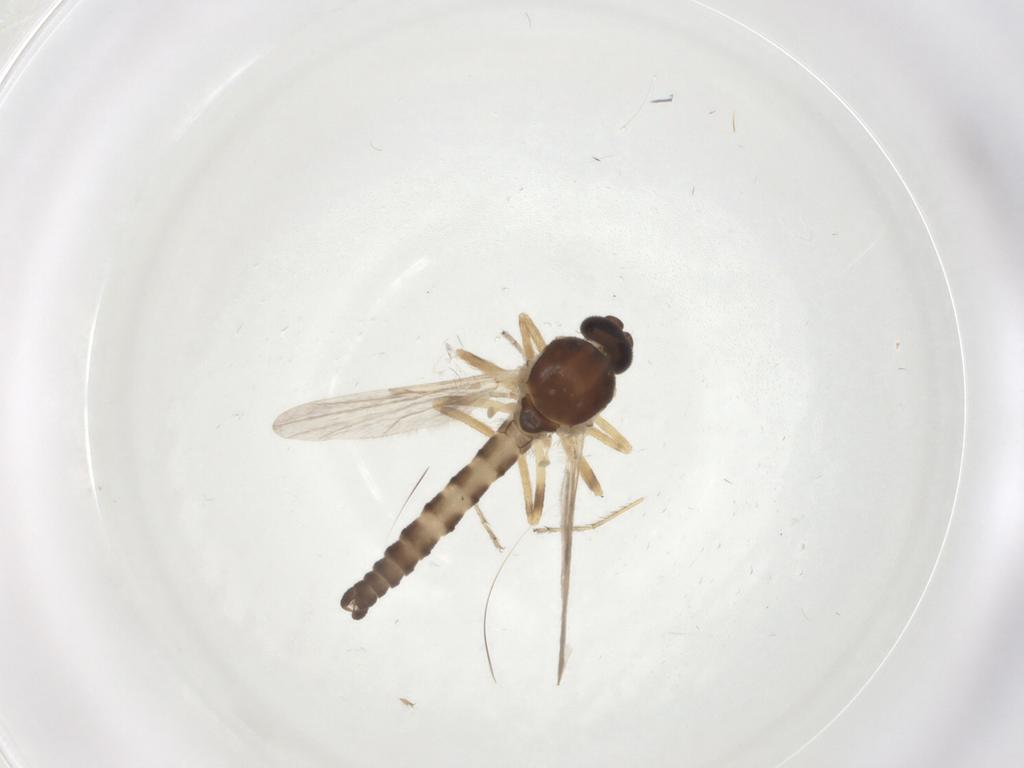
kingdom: Animalia
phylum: Arthropoda
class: Insecta
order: Diptera
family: Ceratopogonidae
